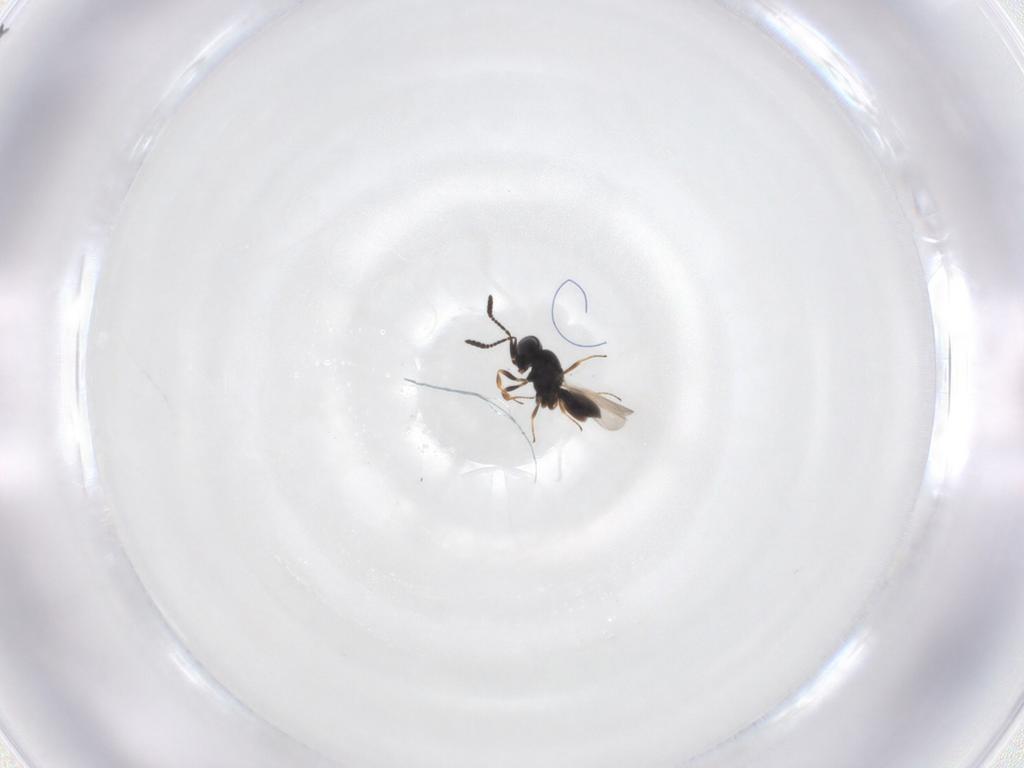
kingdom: Animalia
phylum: Arthropoda
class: Insecta
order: Hymenoptera
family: Scelionidae
